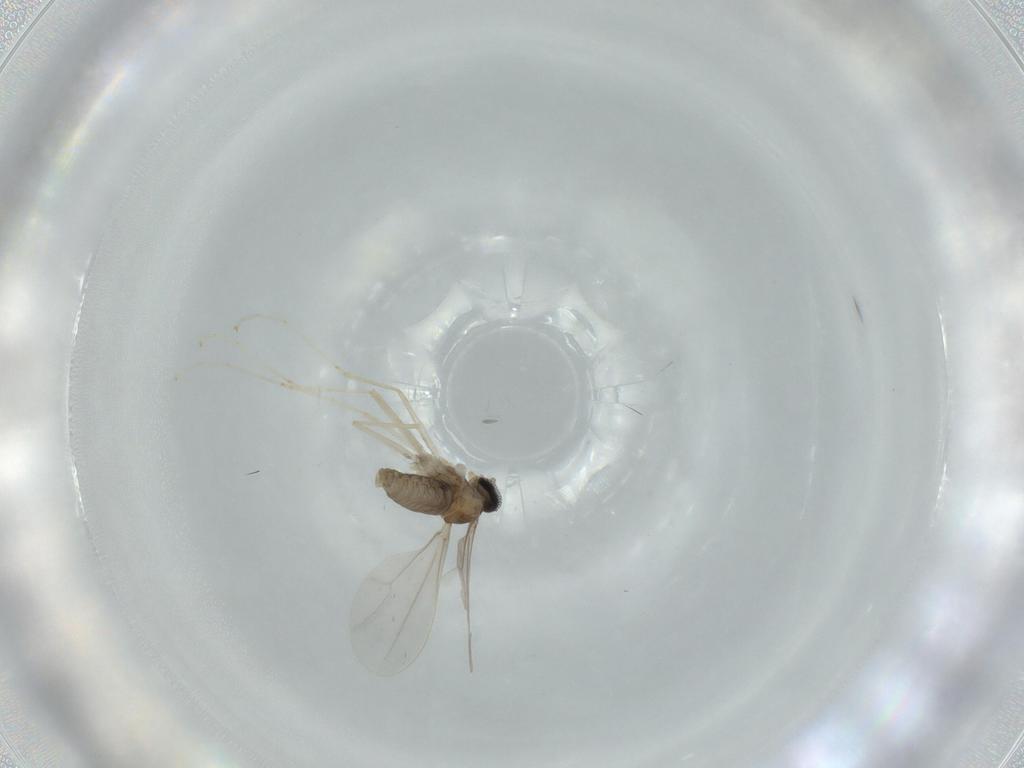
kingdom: Animalia
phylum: Arthropoda
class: Insecta
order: Diptera
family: Cecidomyiidae
